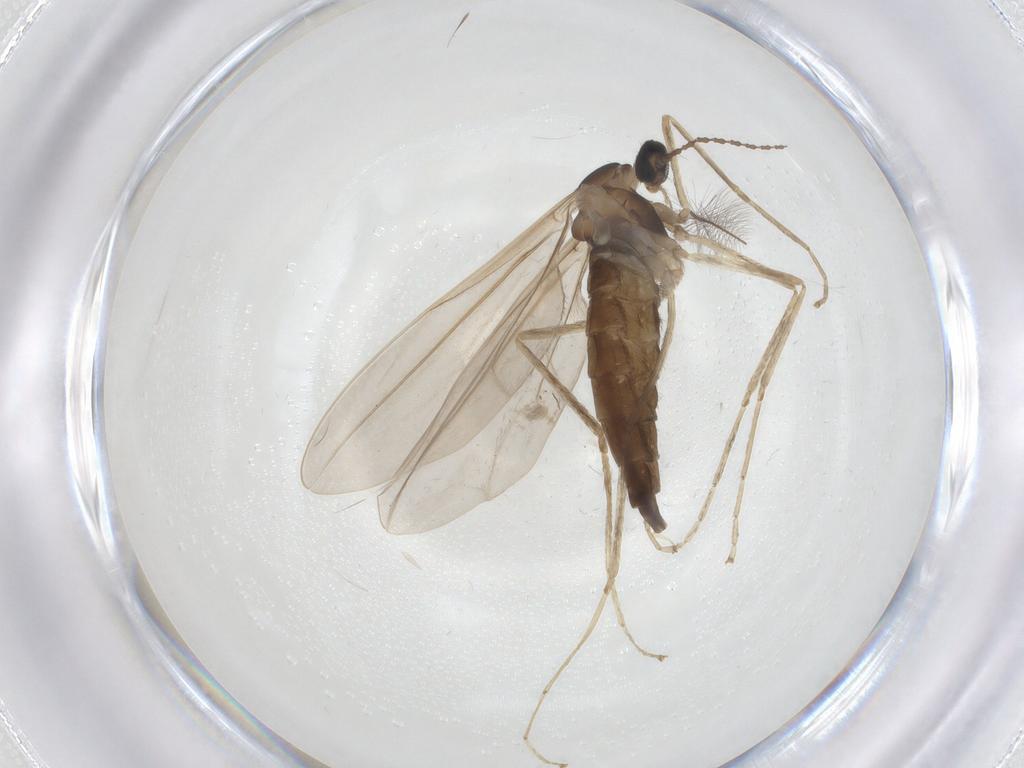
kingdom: Animalia
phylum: Arthropoda
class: Insecta
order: Diptera
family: Cecidomyiidae
